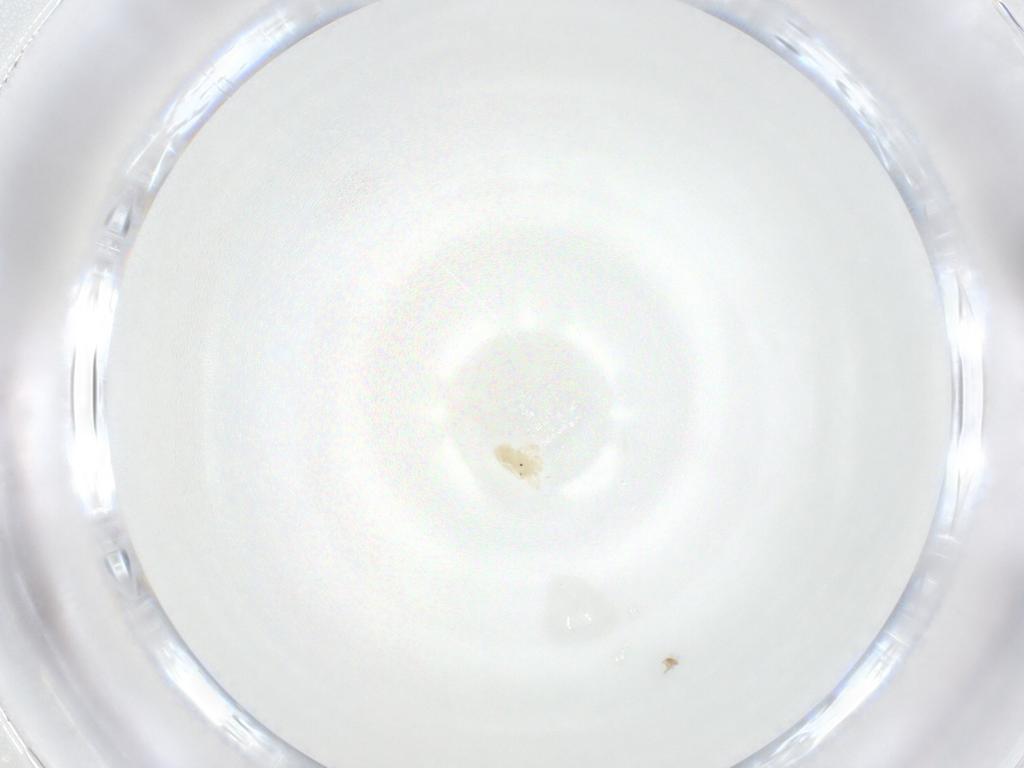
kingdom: Animalia
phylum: Arthropoda
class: Arachnida
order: Trombidiformes
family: Anystidae
